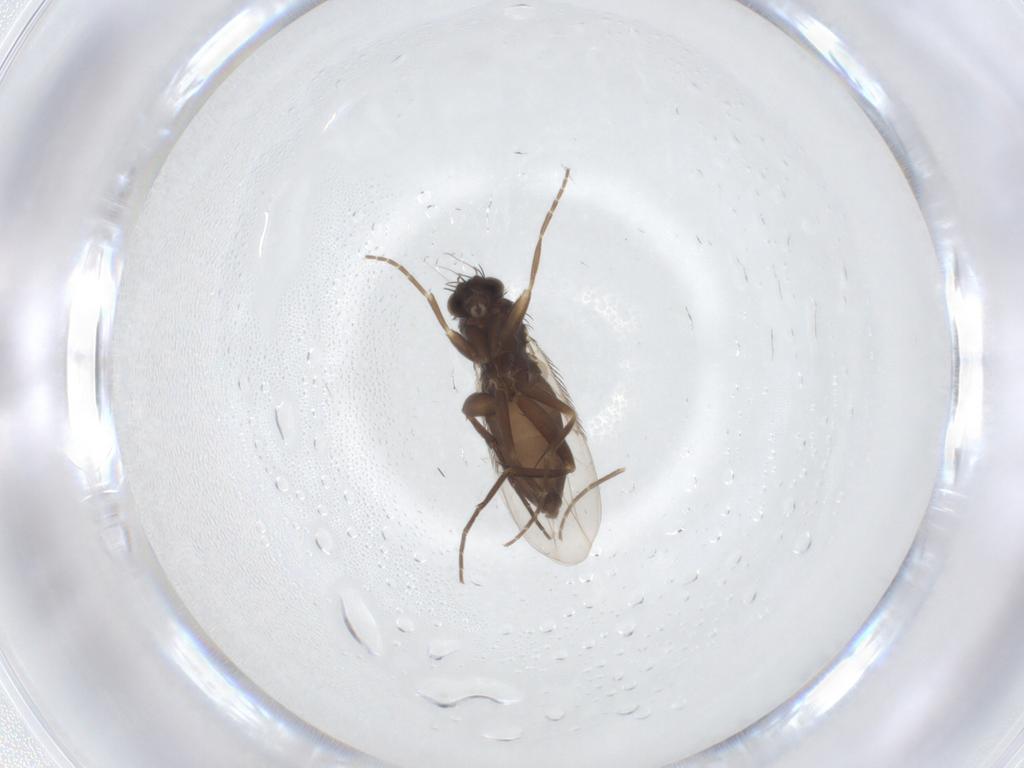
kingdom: Animalia
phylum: Arthropoda
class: Insecta
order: Diptera
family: Phoridae
